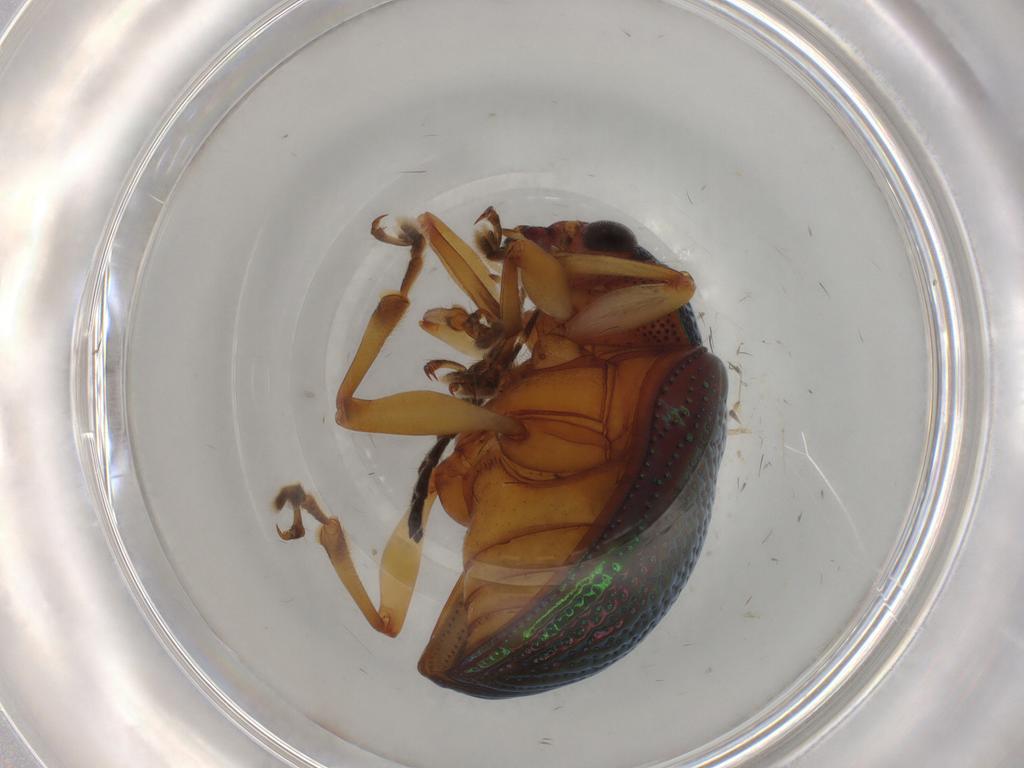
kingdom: Animalia
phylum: Arthropoda
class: Insecta
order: Coleoptera
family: Chrysomelidae
